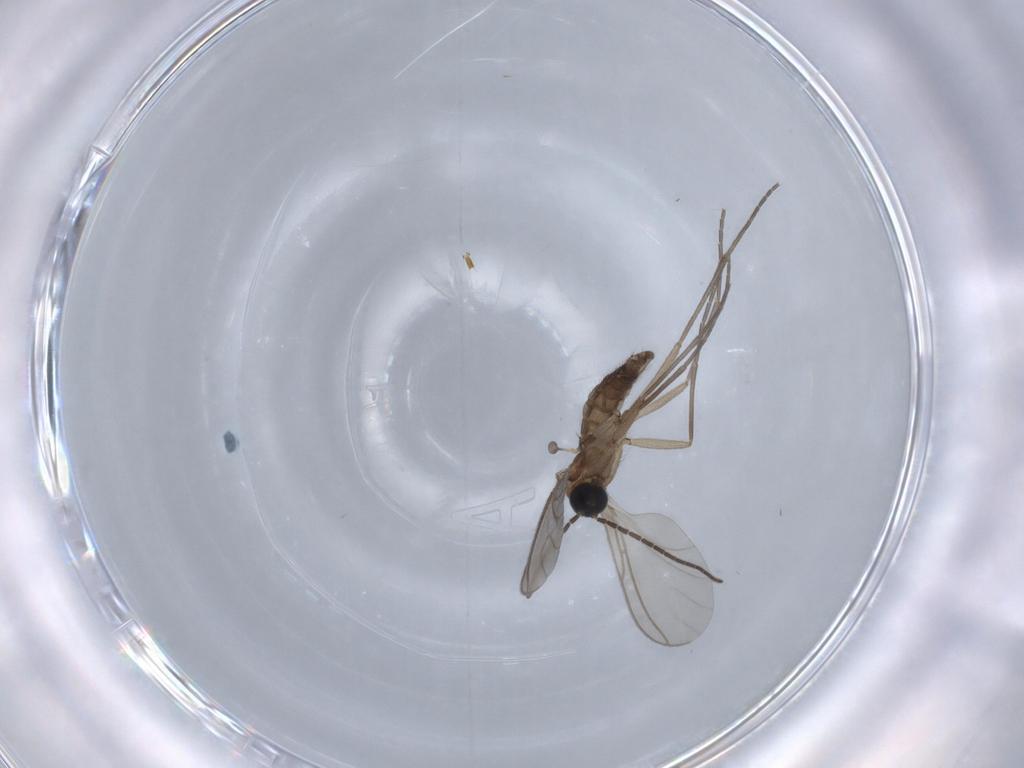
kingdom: Animalia
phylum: Arthropoda
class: Insecta
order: Diptera
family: Sciaridae
